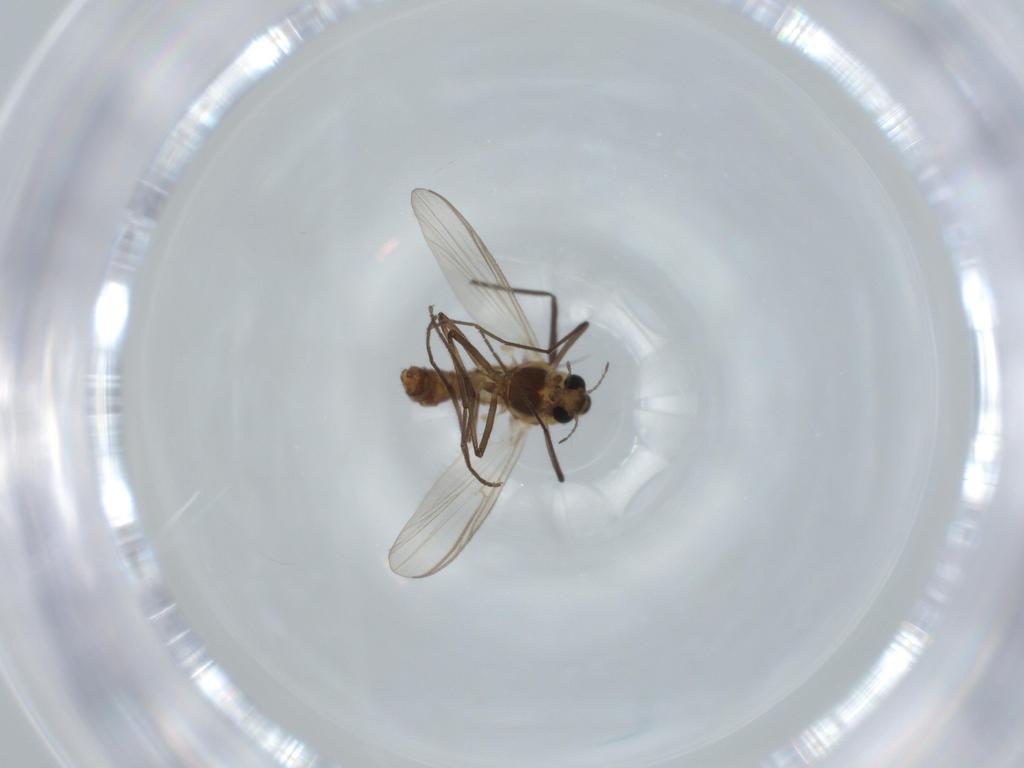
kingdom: Animalia
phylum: Arthropoda
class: Insecta
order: Diptera
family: Chironomidae
